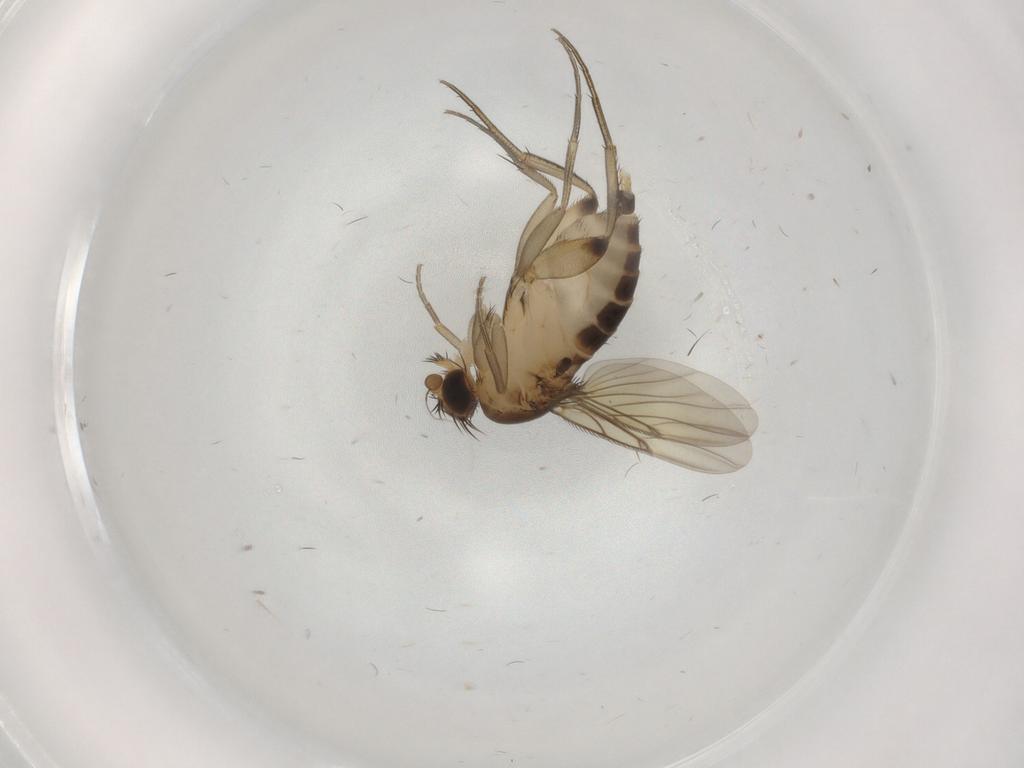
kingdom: Animalia
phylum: Arthropoda
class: Insecta
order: Diptera
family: Phoridae
